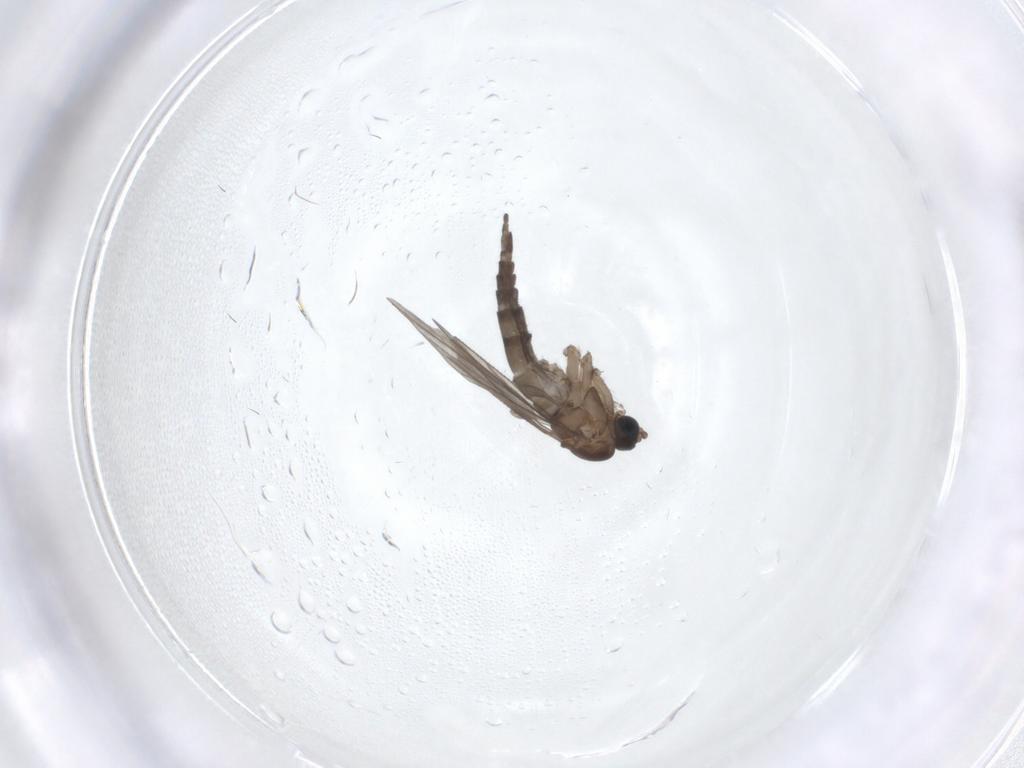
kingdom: Animalia
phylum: Arthropoda
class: Insecta
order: Diptera
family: Sciaridae
